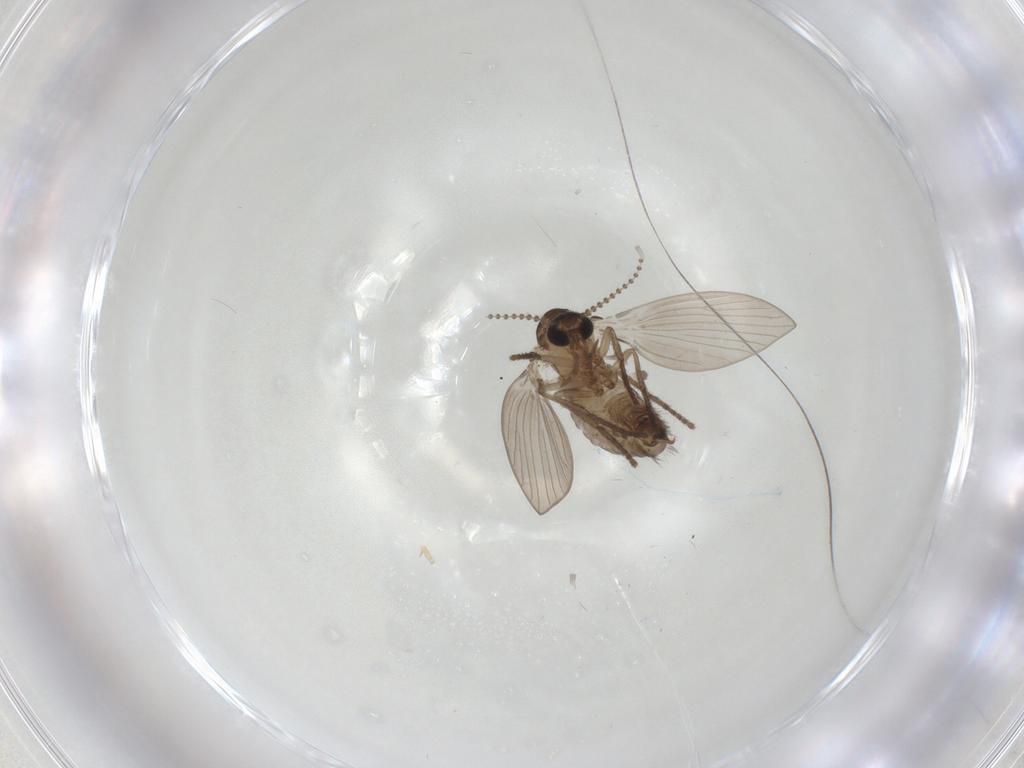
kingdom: Animalia
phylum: Arthropoda
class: Insecta
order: Diptera
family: Psychodidae
